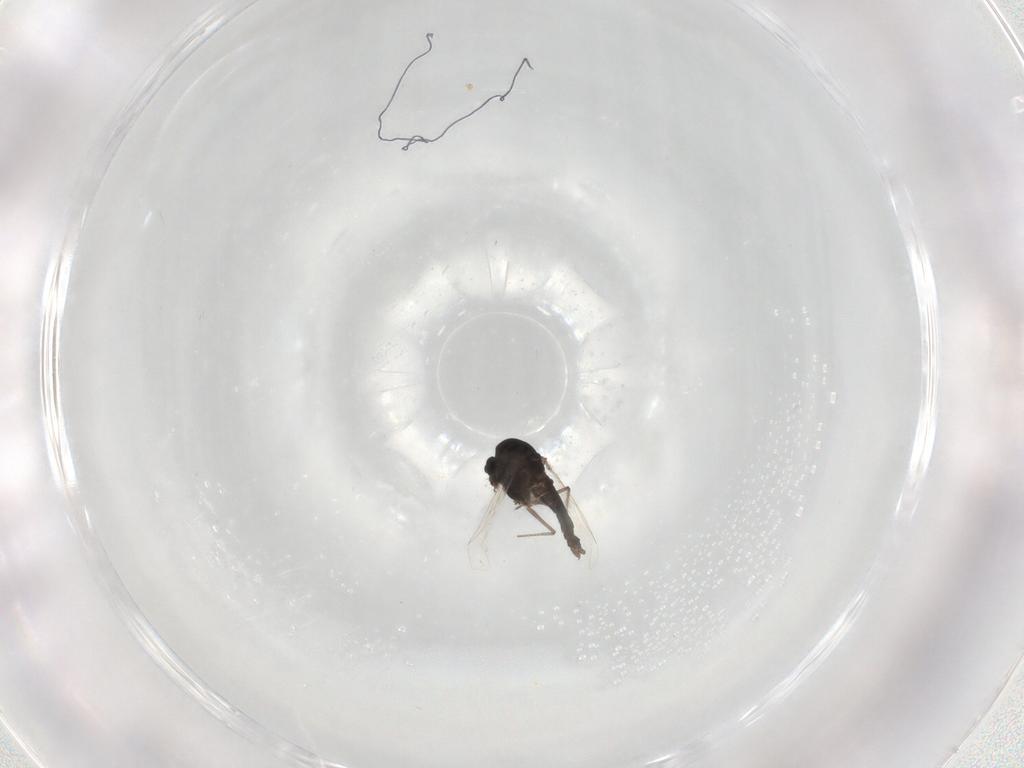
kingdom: Animalia
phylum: Arthropoda
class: Insecta
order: Diptera
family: Chironomidae
